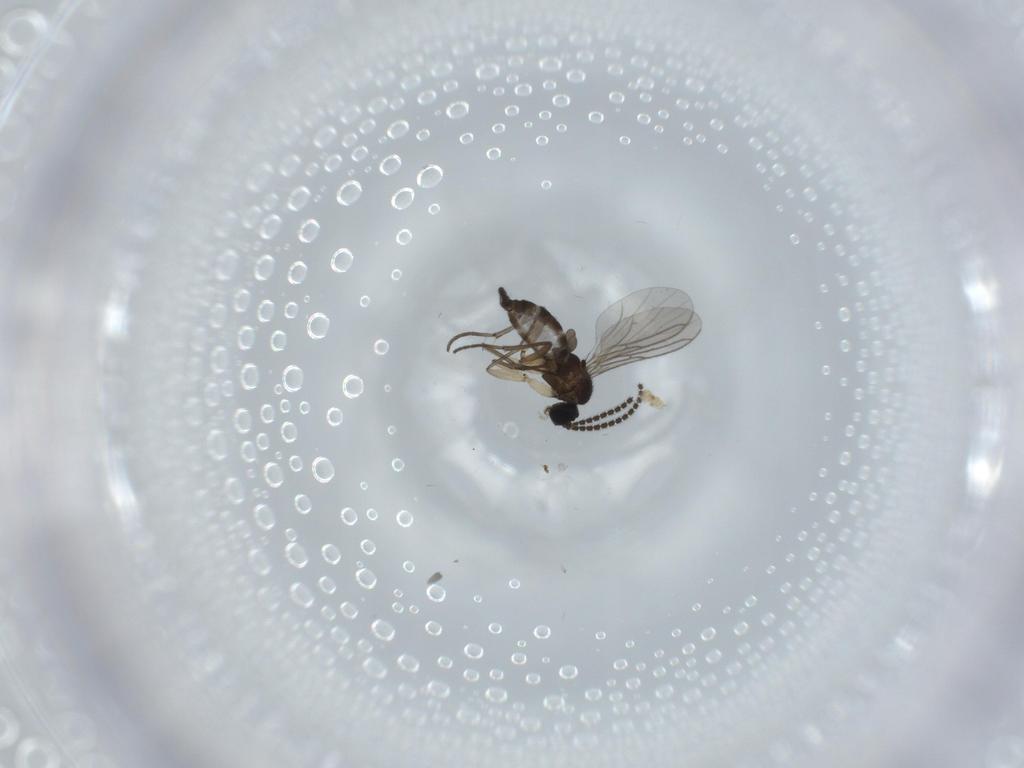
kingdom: Animalia
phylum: Arthropoda
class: Insecta
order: Diptera
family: Sciaridae
